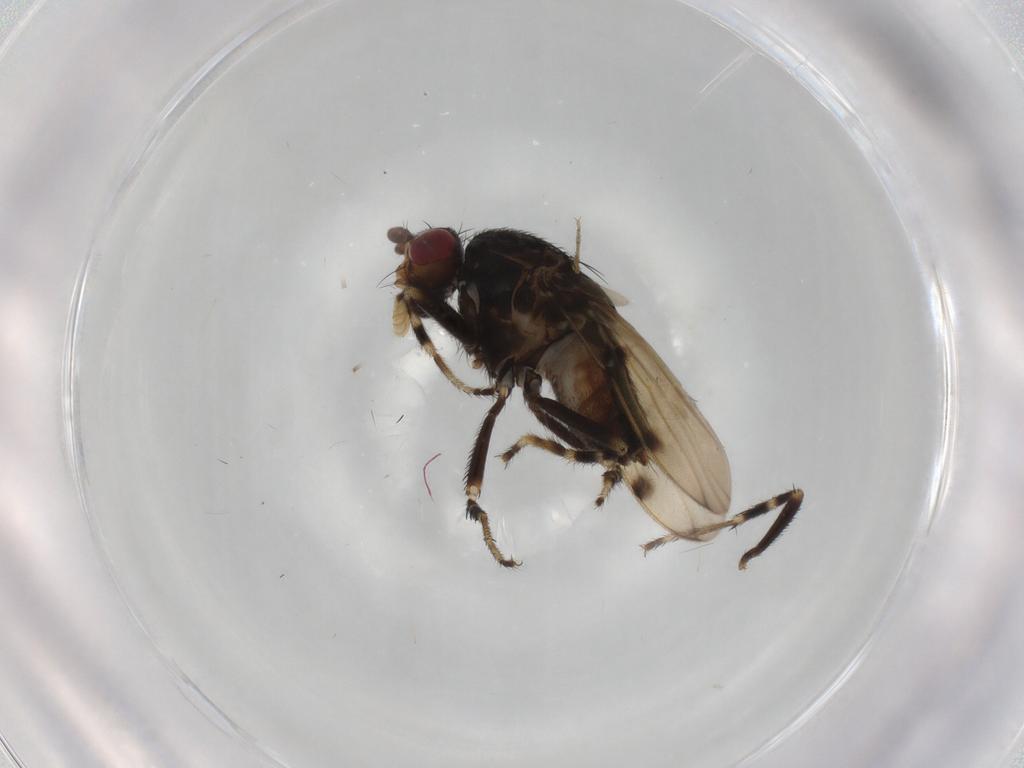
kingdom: Animalia
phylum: Arthropoda
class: Insecta
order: Diptera
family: Sphaeroceridae
